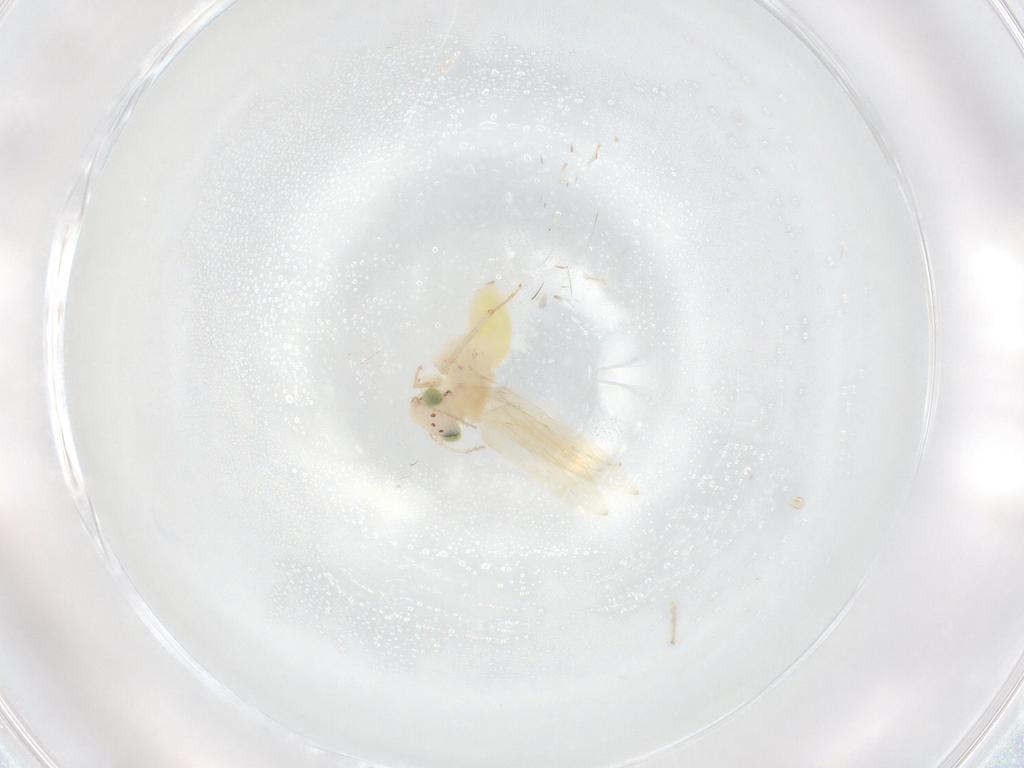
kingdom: Animalia
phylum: Arthropoda
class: Insecta
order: Psocodea
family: Lepidopsocidae
